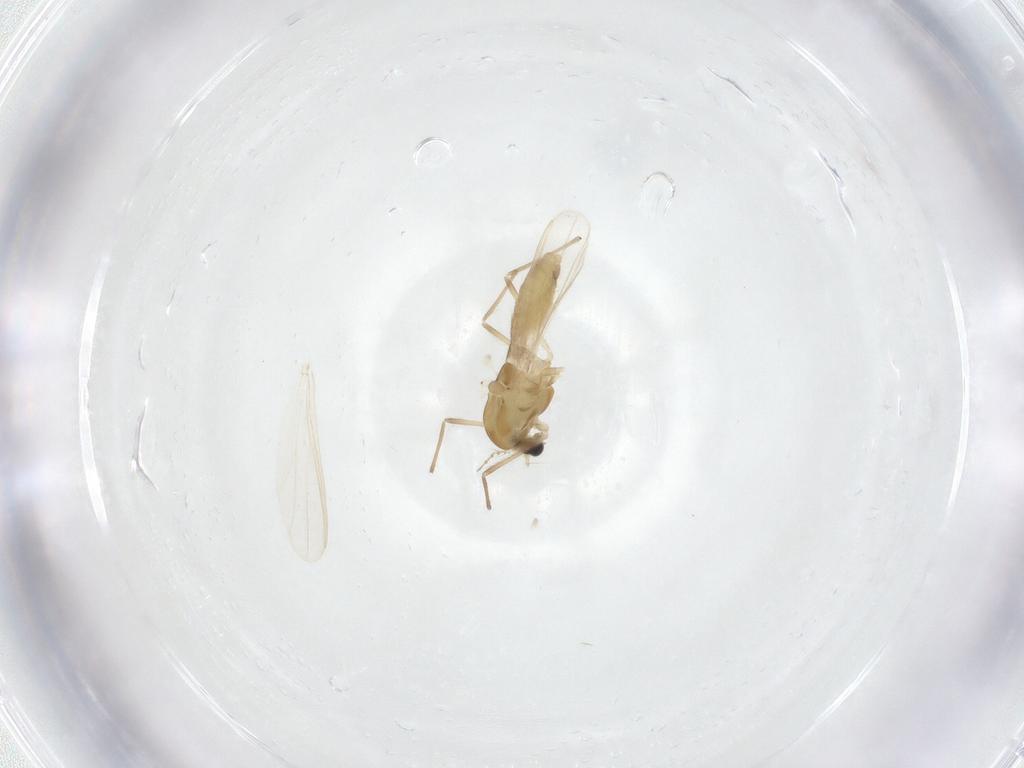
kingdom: Animalia
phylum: Arthropoda
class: Insecta
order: Diptera
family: Chironomidae
